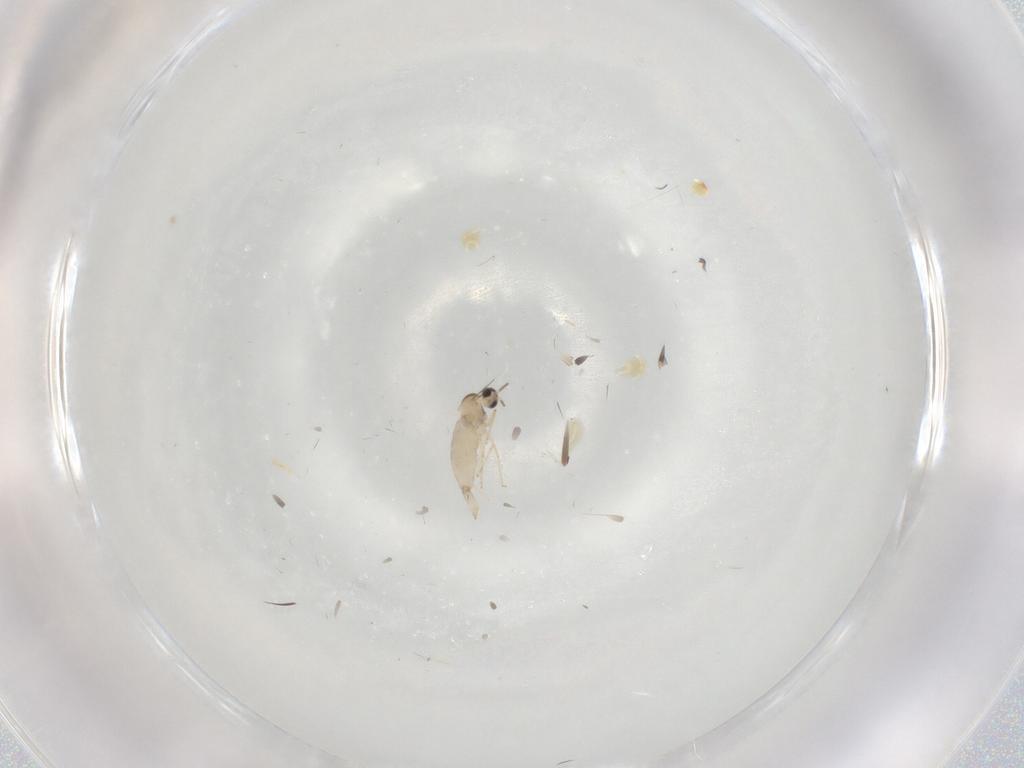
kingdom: Animalia
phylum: Arthropoda
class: Insecta
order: Diptera
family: Cecidomyiidae
